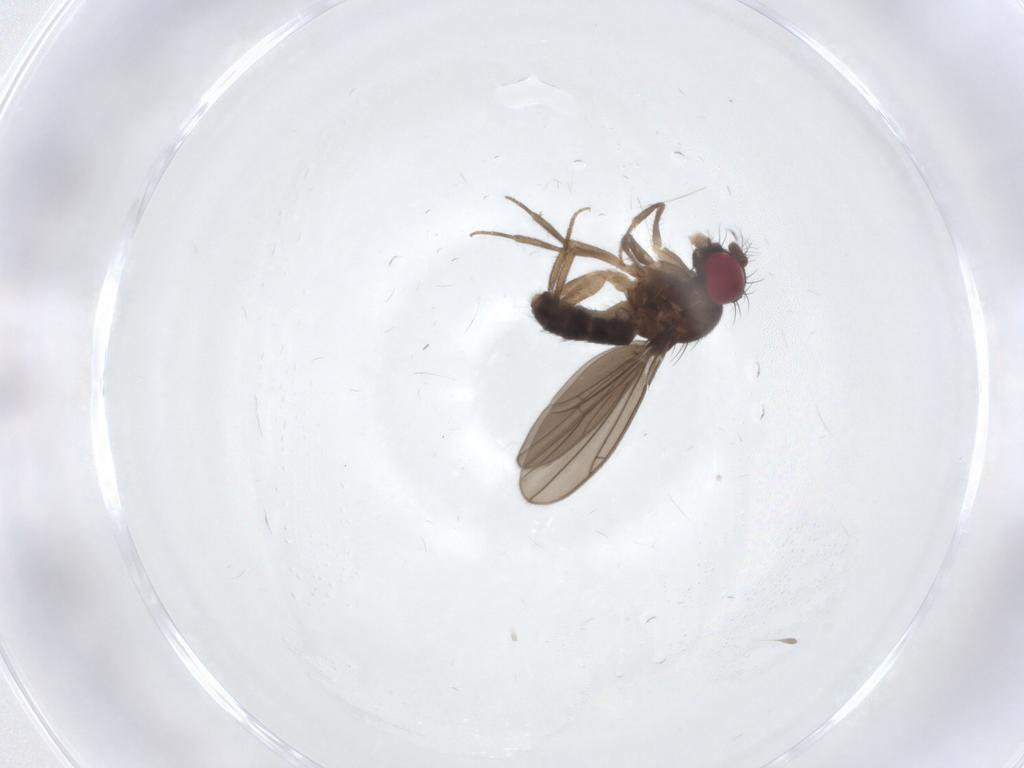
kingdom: Animalia
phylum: Arthropoda
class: Insecta
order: Diptera
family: Drosophilidae
